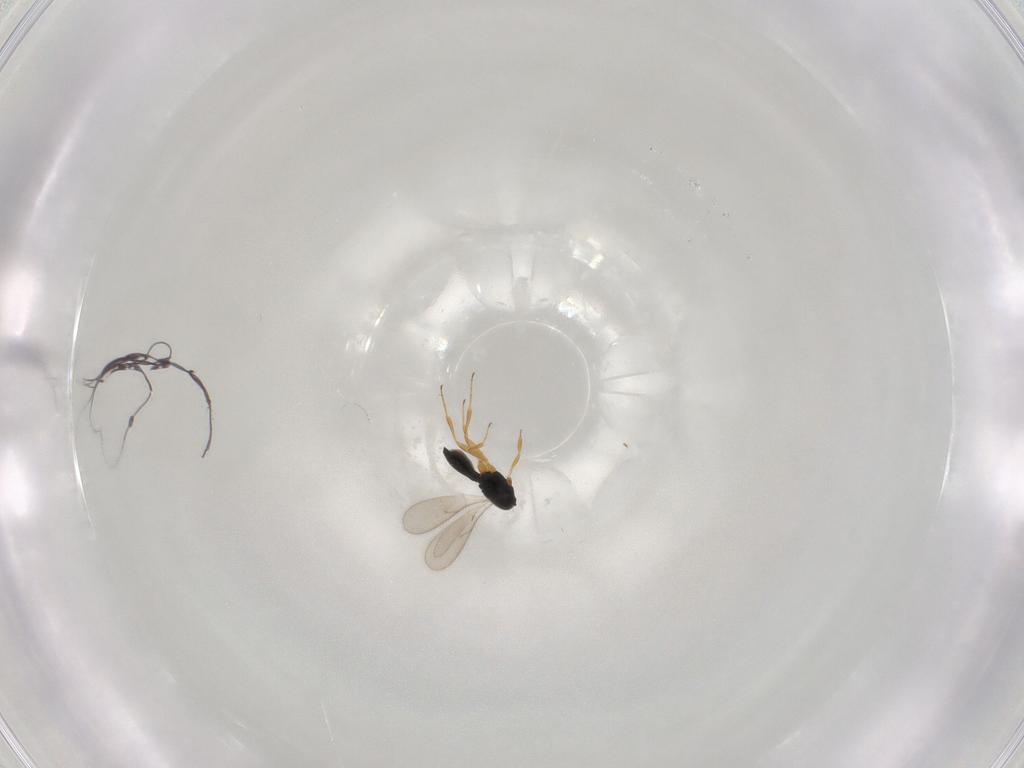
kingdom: Animalia
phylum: Arthropoda
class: Insecta
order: Hymenoptera
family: Scelionidae
